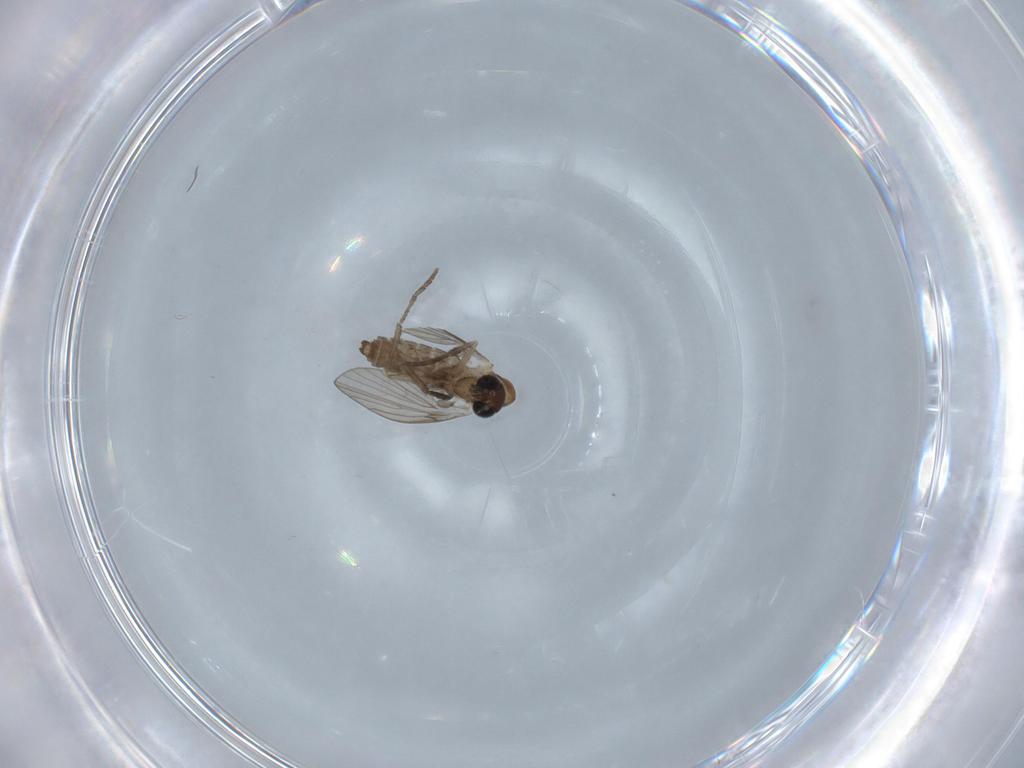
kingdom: Animalia
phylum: Arthropoda
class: Insecta
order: Diptera
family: Psychodidae
